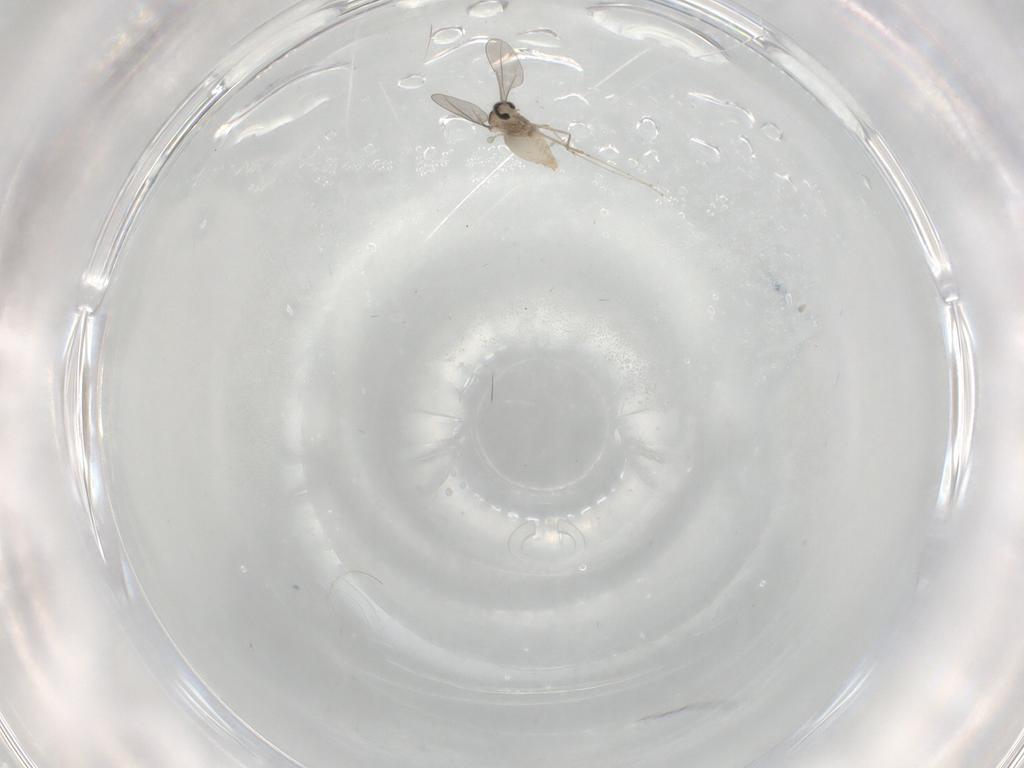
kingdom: Animalia
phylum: Arthropoda
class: Insecta
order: Diptera
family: Cecidomyiidae
